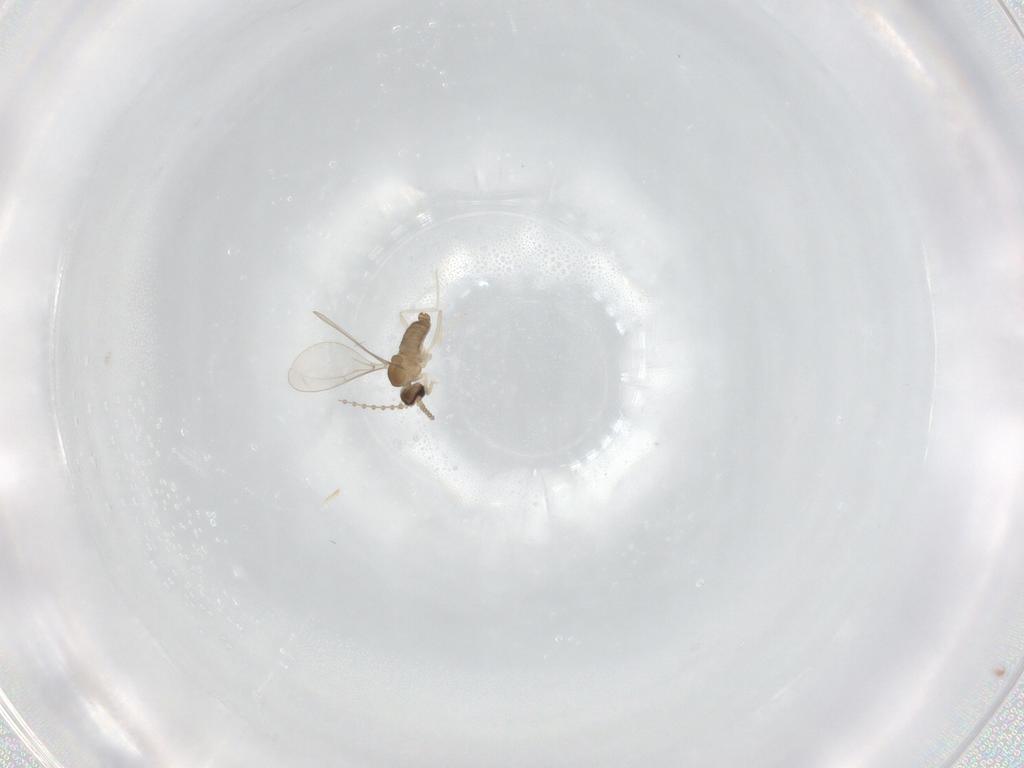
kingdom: Animalia
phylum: Arthropoda
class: Insecta
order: Diptera
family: Cecidomyiidae
